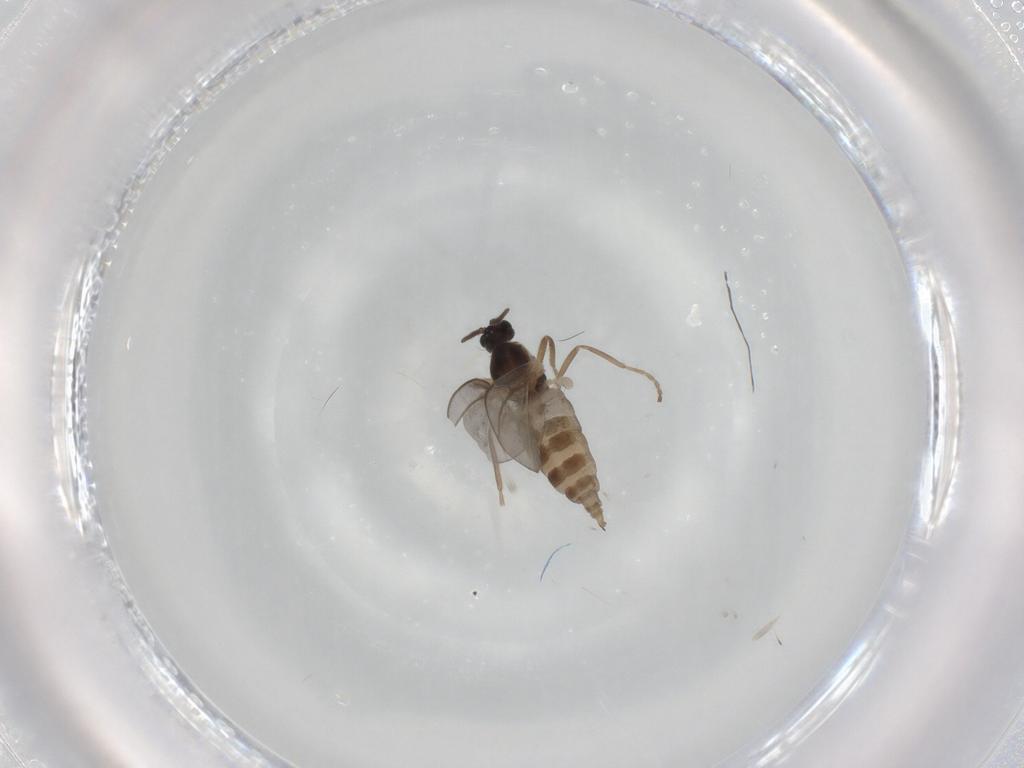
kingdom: Animalia
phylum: Arthropoda
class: Insecta
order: Diptera
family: Cecidomyiidae
